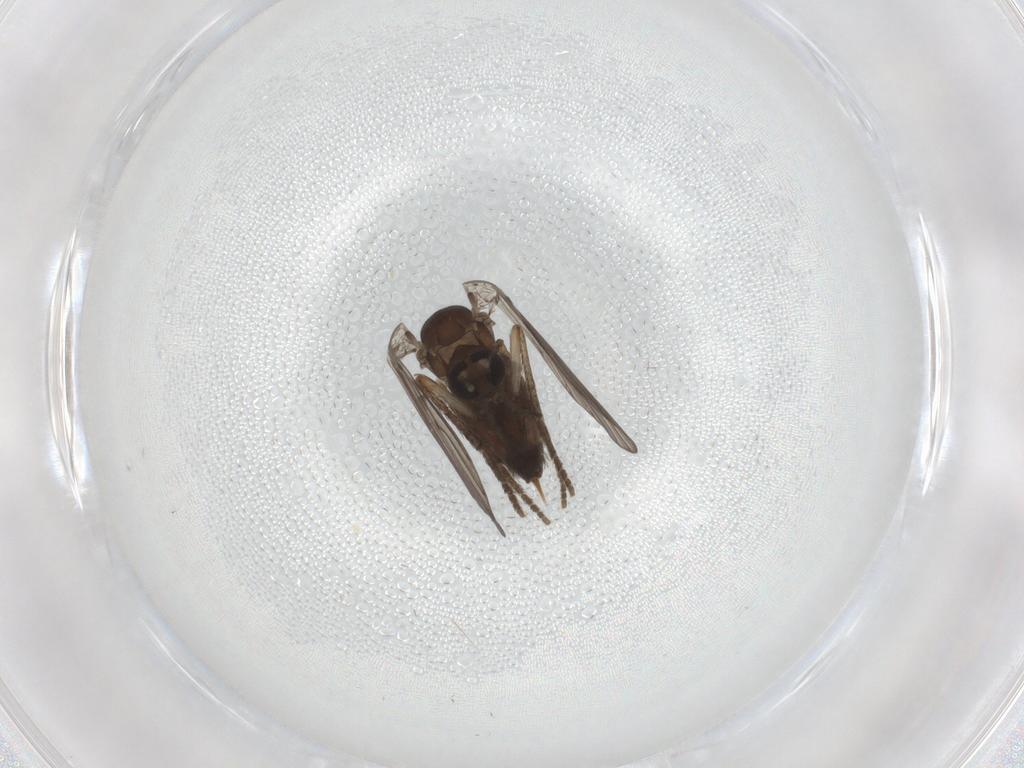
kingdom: Animalia
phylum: Arthropoda
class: Insecta
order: Diptera
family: Psychodidae
